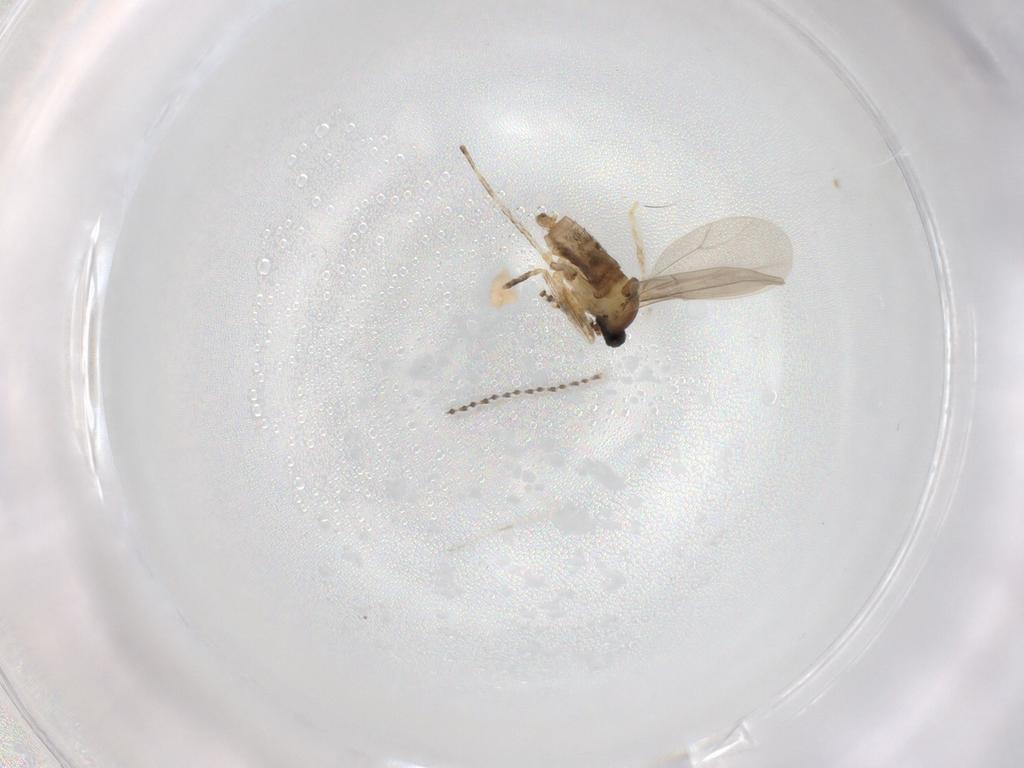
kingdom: Animalia
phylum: Arthropoda
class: Insecta
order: Diptera
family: Cecidomyiidae
